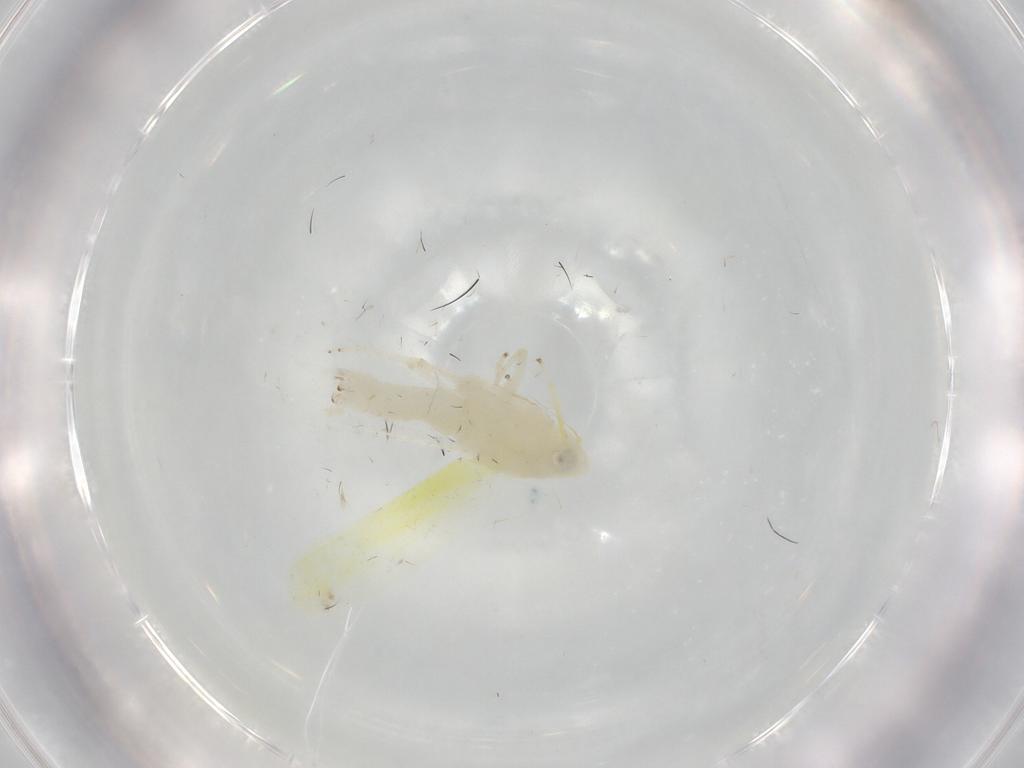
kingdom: Animalia
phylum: Arthropoda
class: Insecta
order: Hemiptera
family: Cicadellidae
